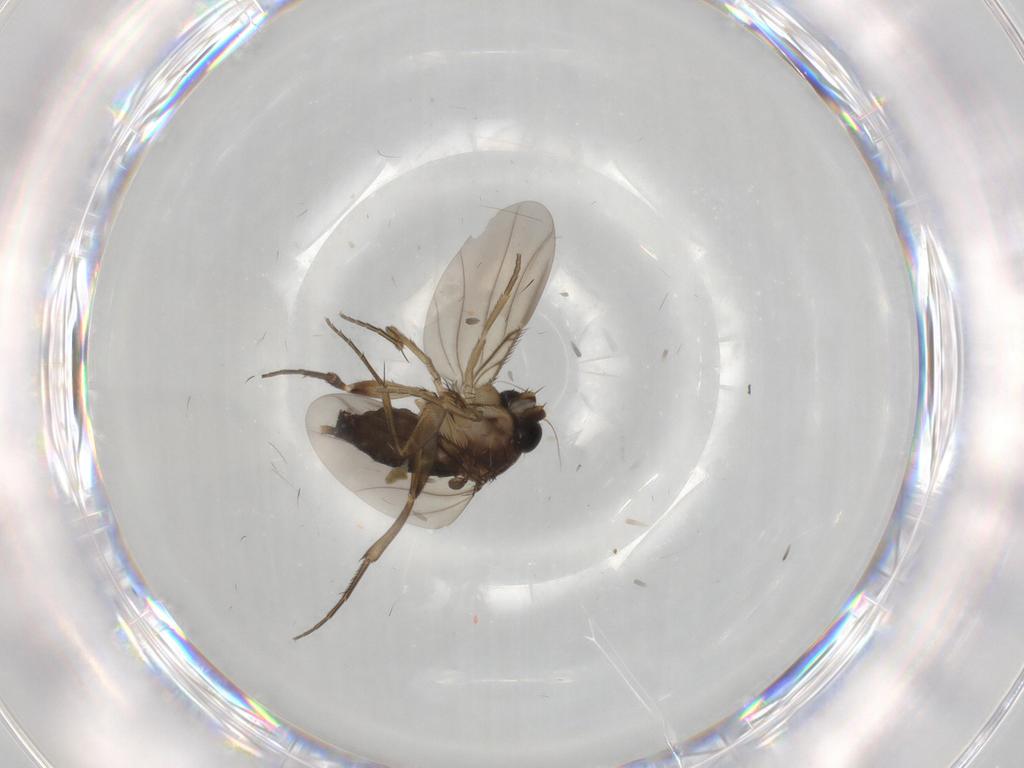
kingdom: Animalia
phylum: Arthropoda
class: Insecta
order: Diptera
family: Phoridae
